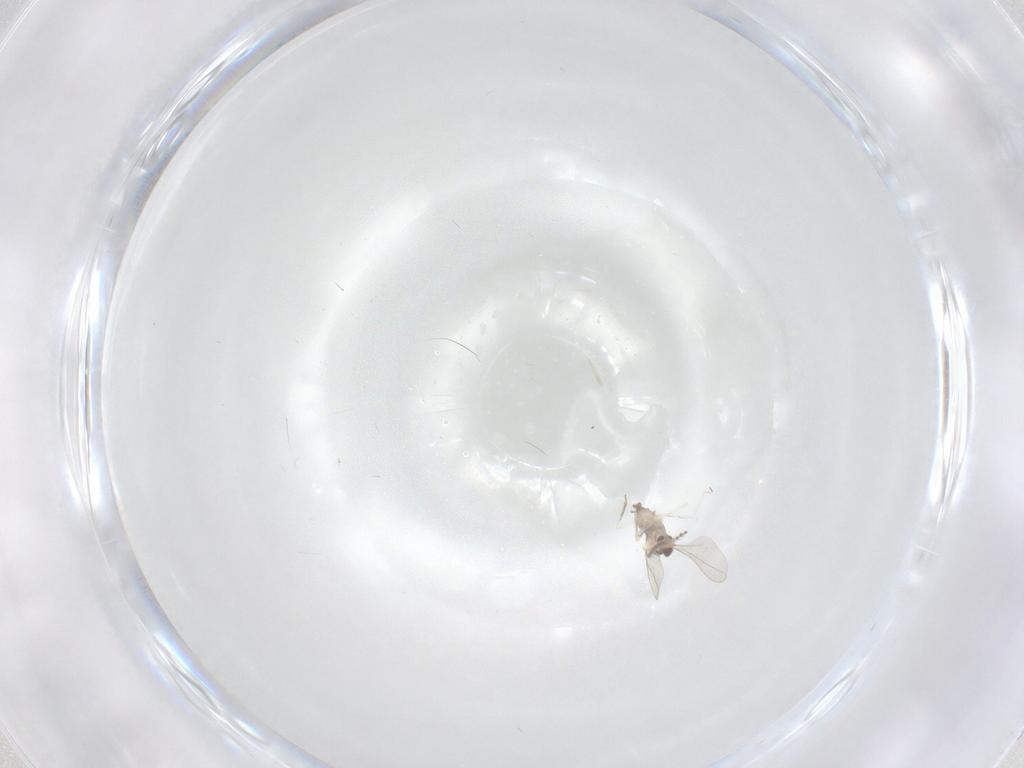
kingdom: Animalia
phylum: Arthropoda
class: Insecta
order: Diptera
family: Cecidomyiidae
